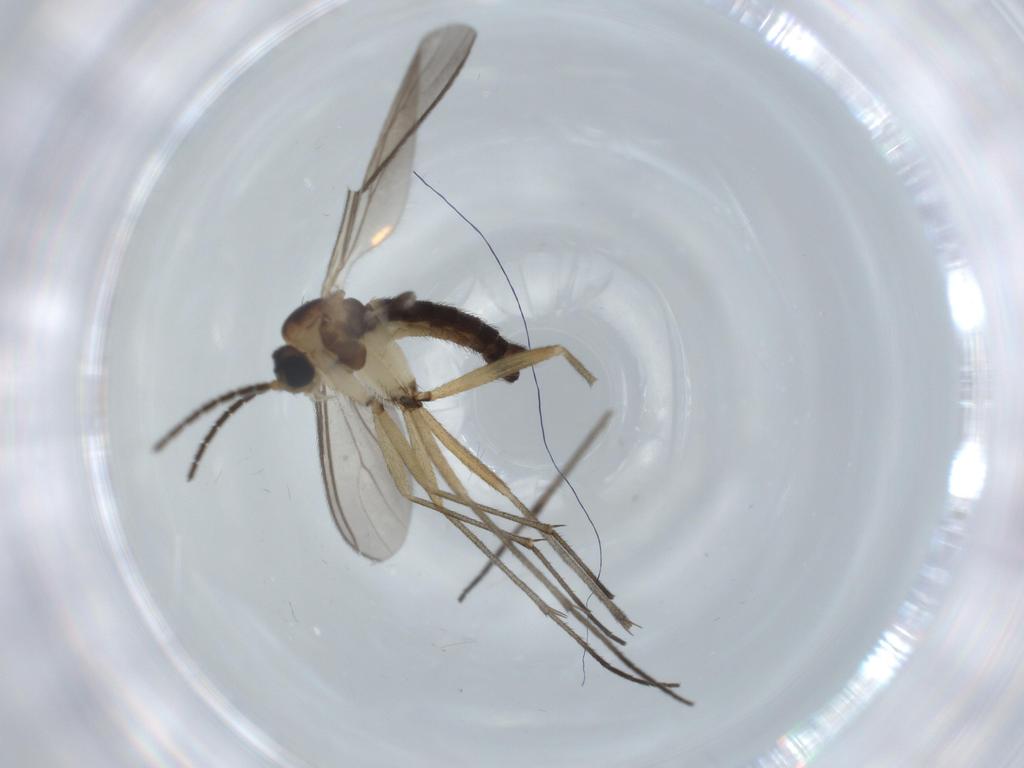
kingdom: Animalia
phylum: Arthropoda
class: Insecta
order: Diptera
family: Sciaridae
